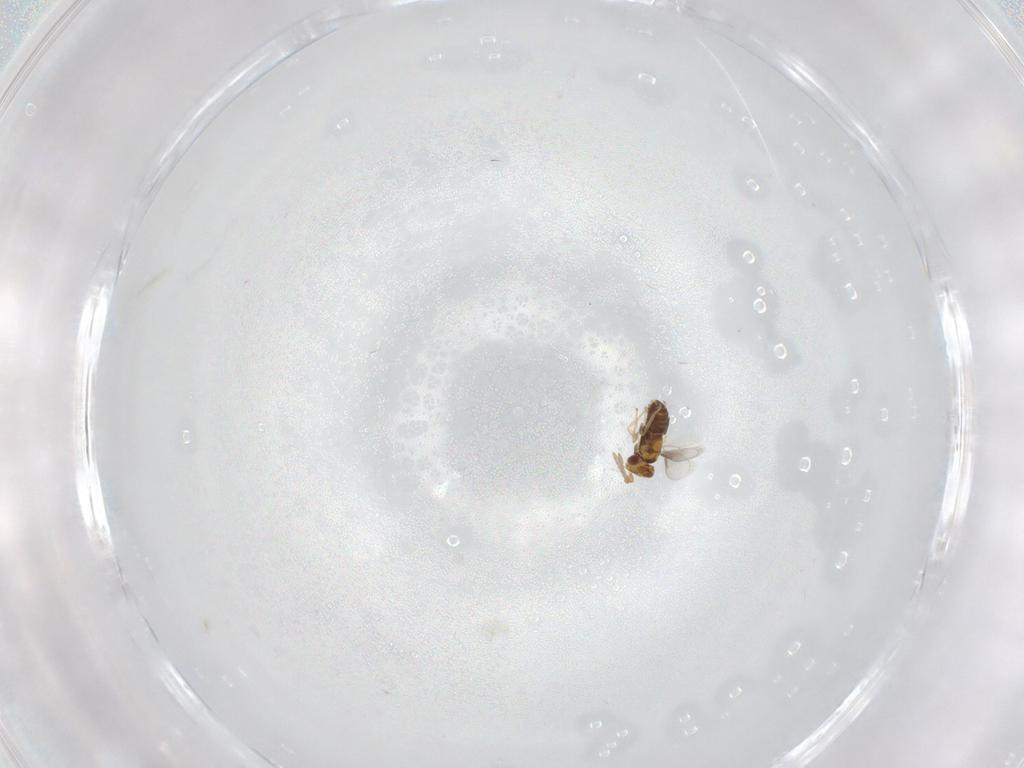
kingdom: Animalia
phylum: Arthropoda
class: Insecta
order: Hymenoptera
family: Aphelinidae
